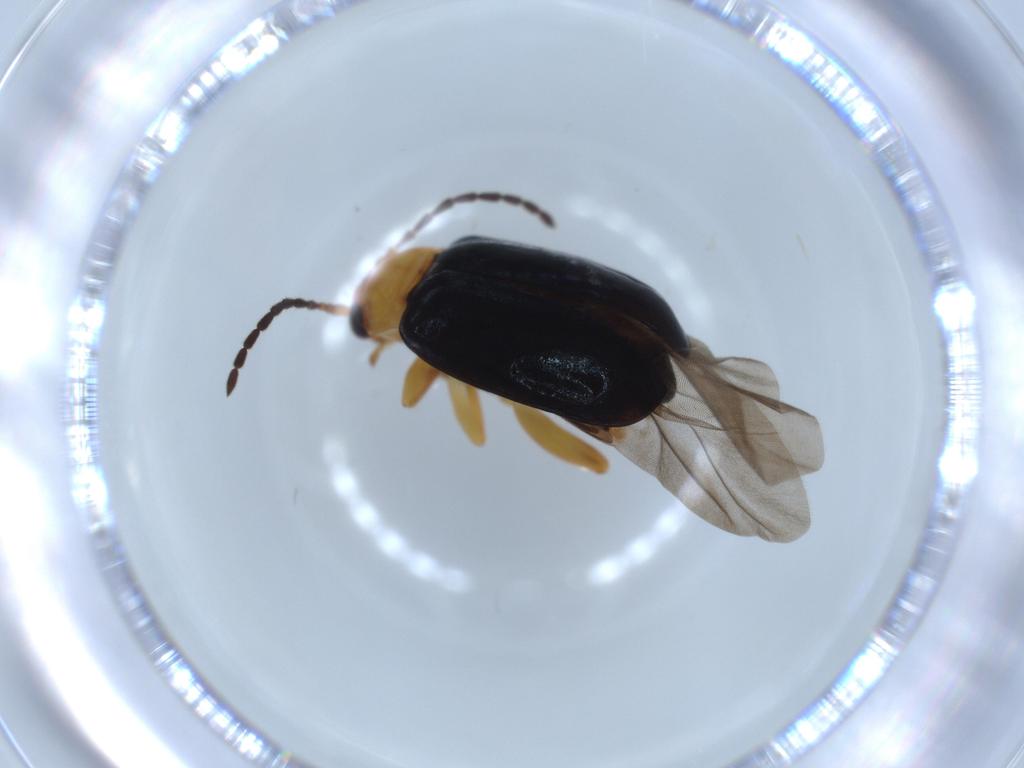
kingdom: Animalia
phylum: Arthropoda
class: Insecta
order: Coleoptera
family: Chrysomelidae
